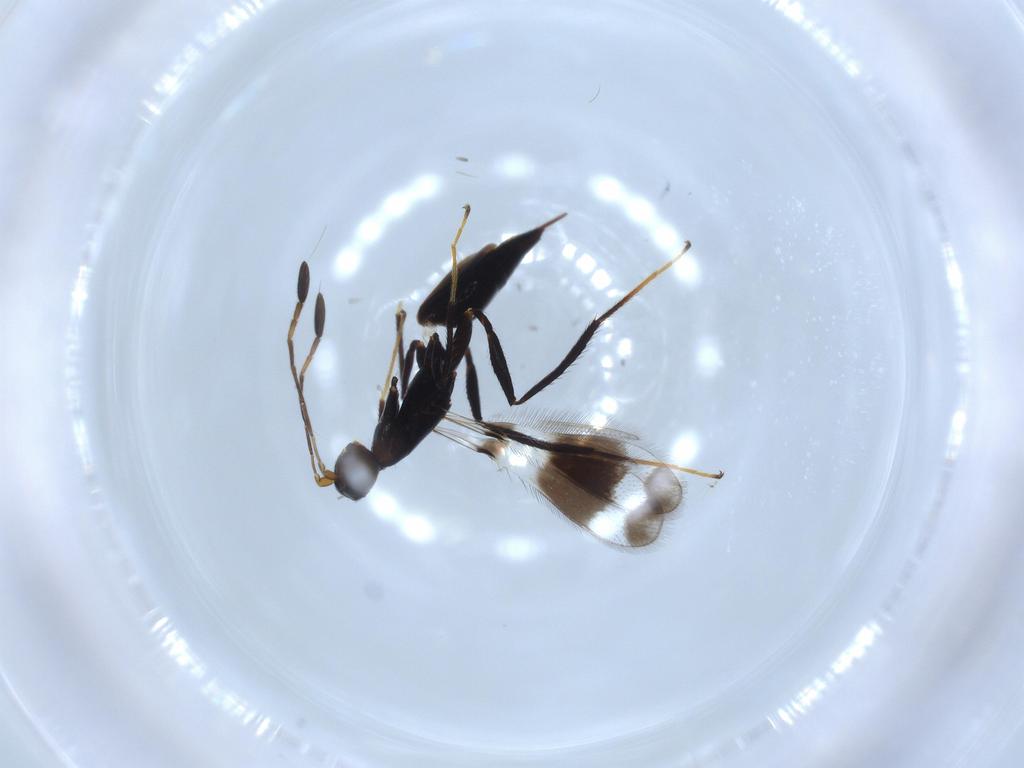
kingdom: Animalia
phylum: Arthropoda
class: Insecta
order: Hymenoptera
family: Mymaridae
